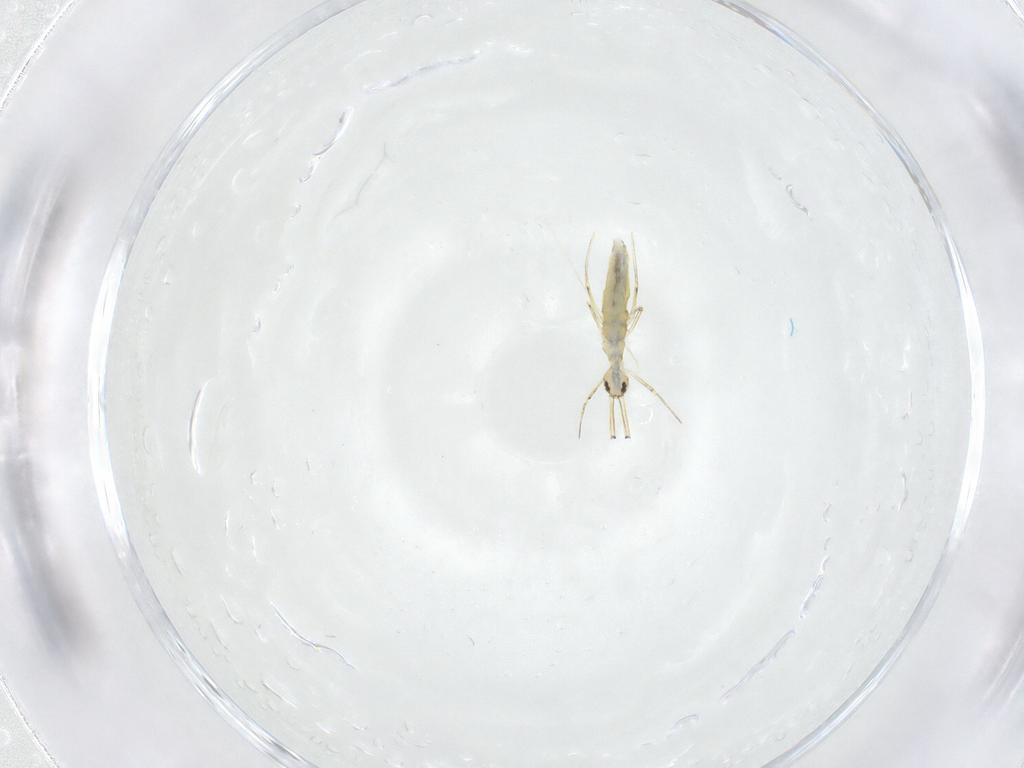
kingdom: Animalia
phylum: Arthropoda
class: Collembola
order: Entomobryomorpha
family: Entomobryidae
